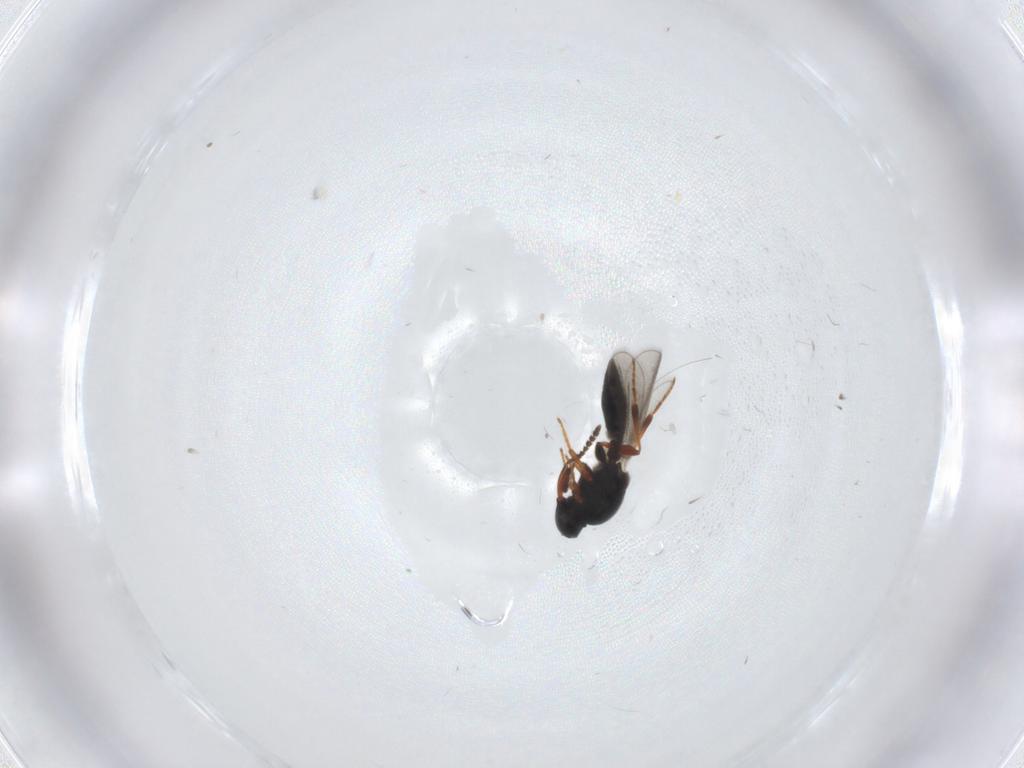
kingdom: Animalia
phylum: Arthropoda
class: Insecta
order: Hymenoptera
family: Platygastridae
